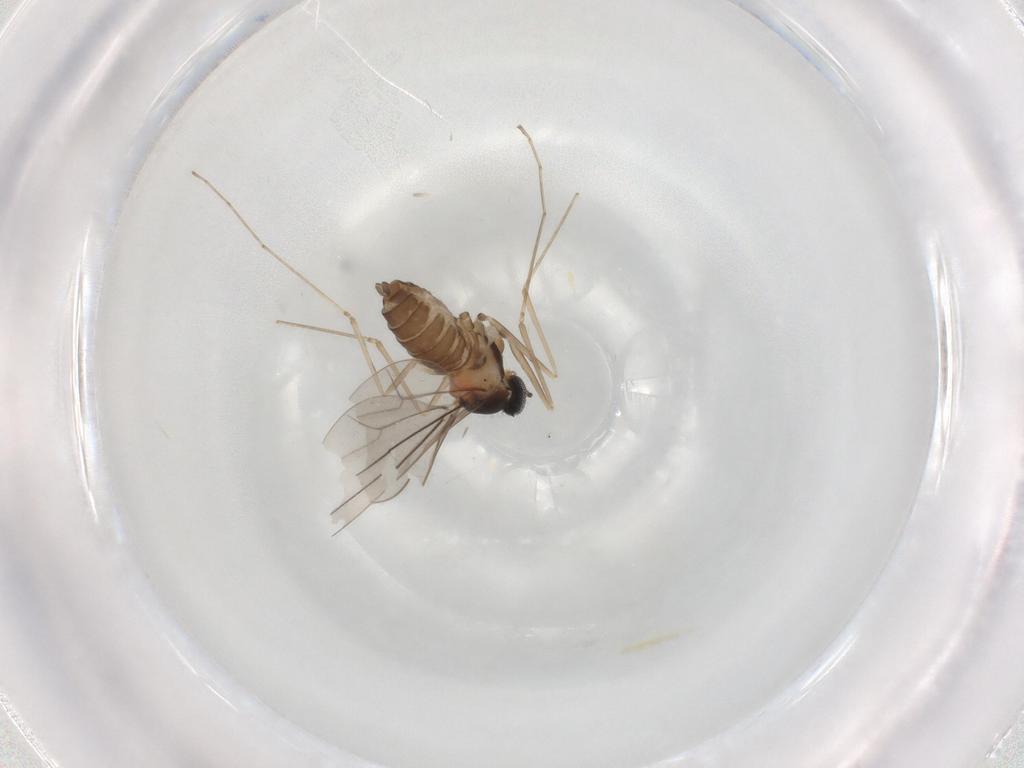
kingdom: Animalia
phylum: Arthropoda
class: Insecta
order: Diptera
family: Cecidomyiidae
